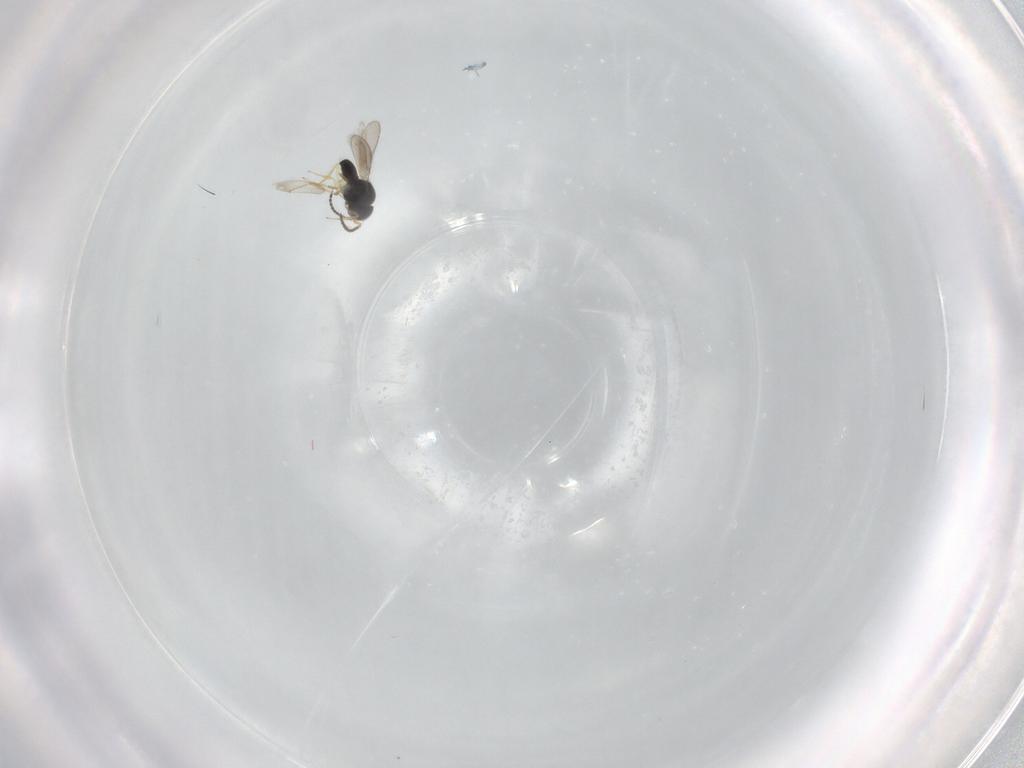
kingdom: Animalia
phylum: Arthropoda
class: Insecta
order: Hymenoptera
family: Scelionidae
